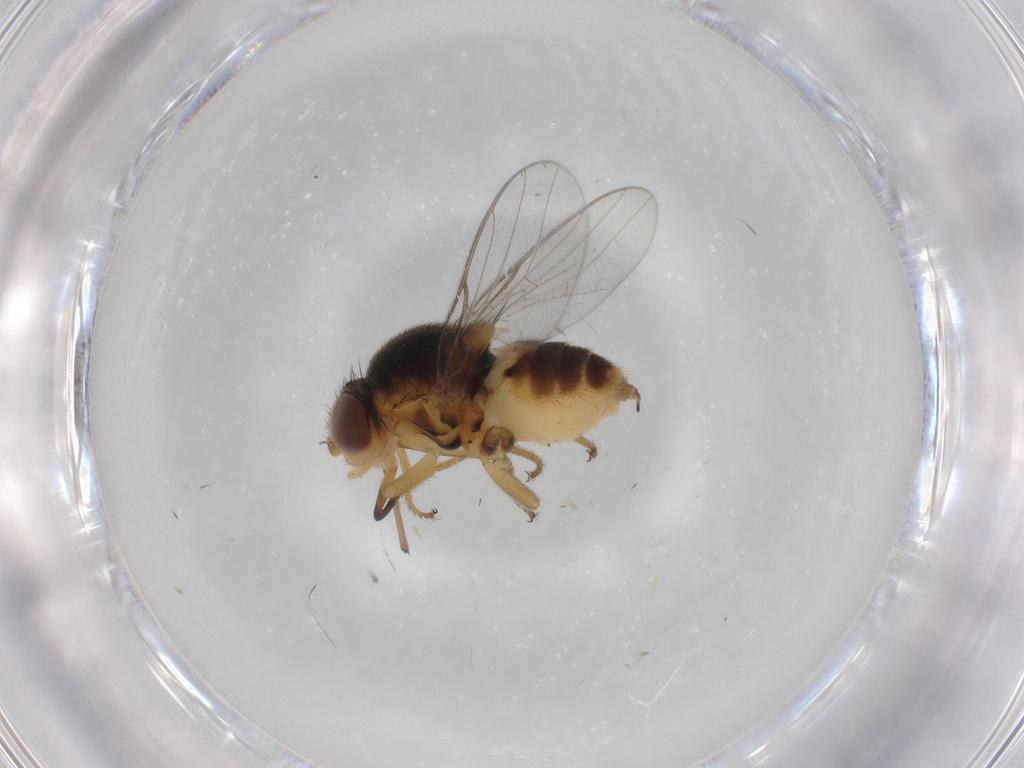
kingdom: Animalia
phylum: Arthropoda
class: Insecta
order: Diptera
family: Chloropidae
